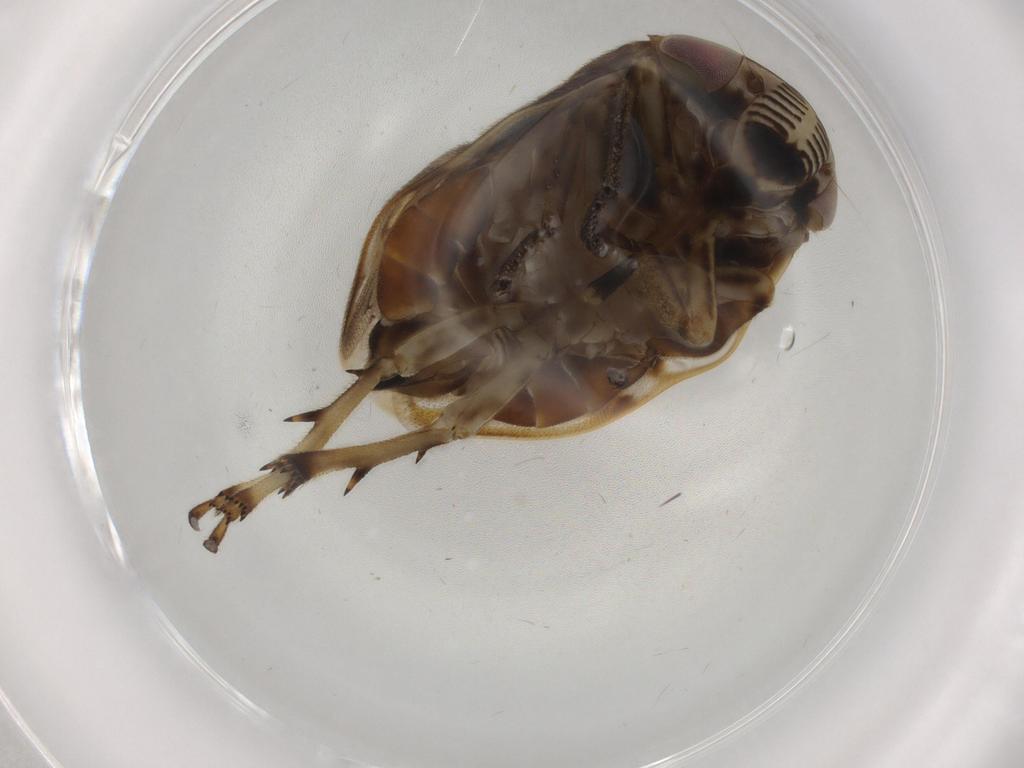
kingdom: Animalia
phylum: Arthropoda
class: Insecta
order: Hemiptera
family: Clastopteridae
